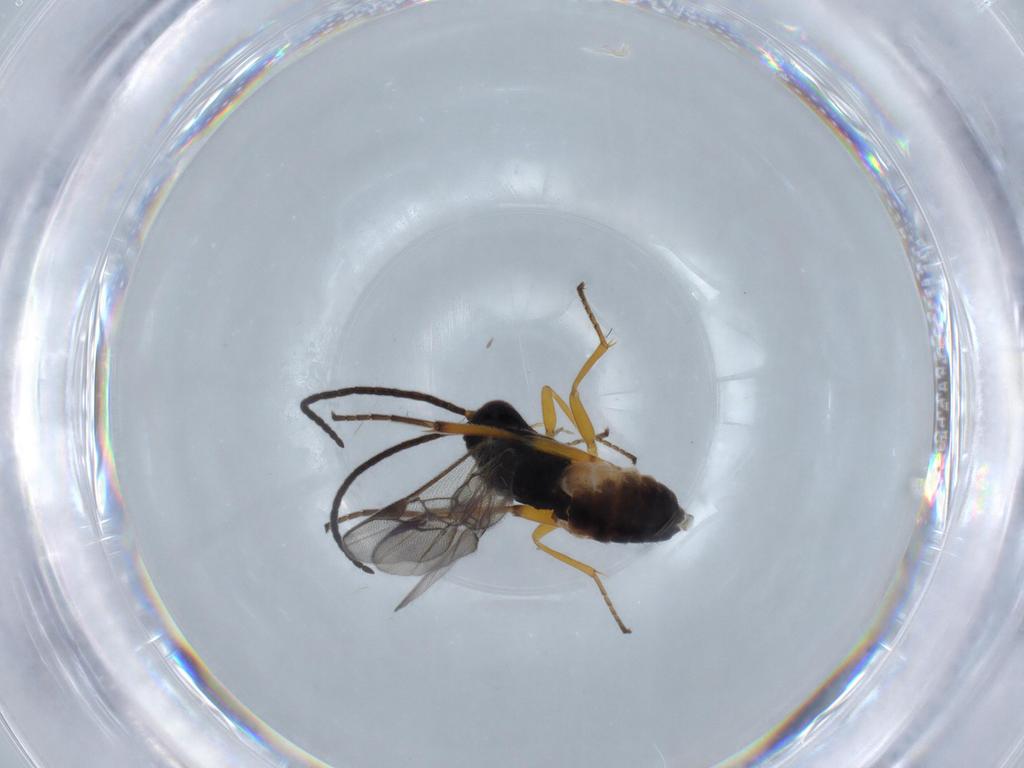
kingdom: Animalia
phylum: Arthropoda
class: Insecta
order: Hymenoptera
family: Braconidae
